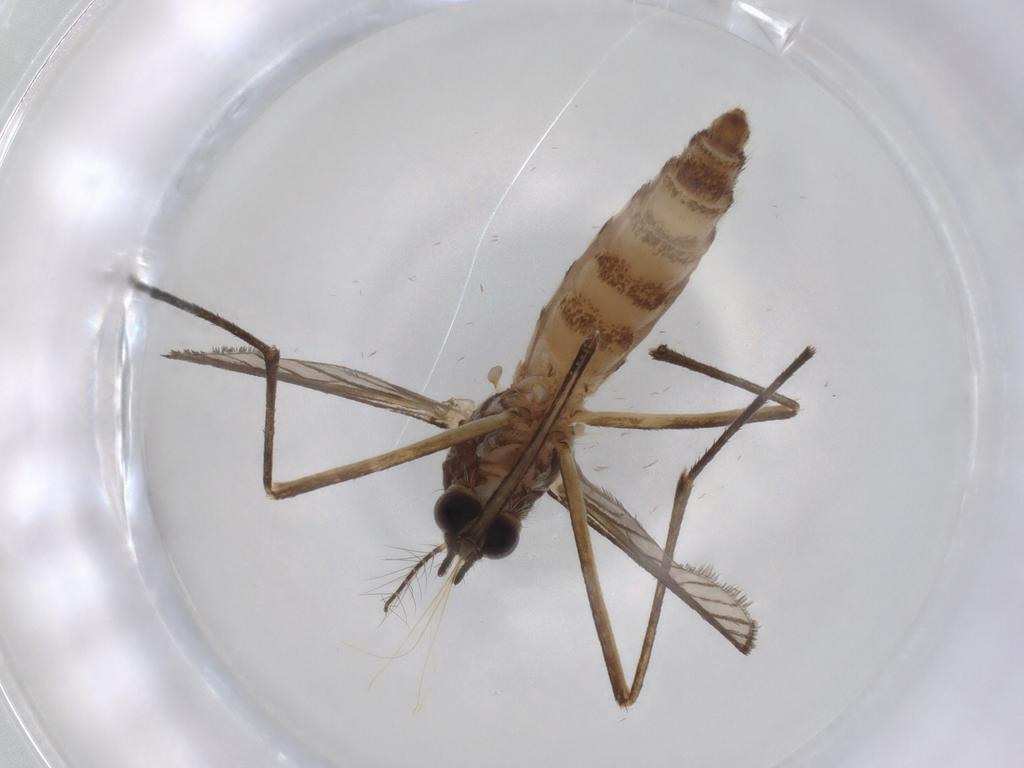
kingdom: Animalia
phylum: Arthropoda
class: Insecta
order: Diptera
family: Culicidae
